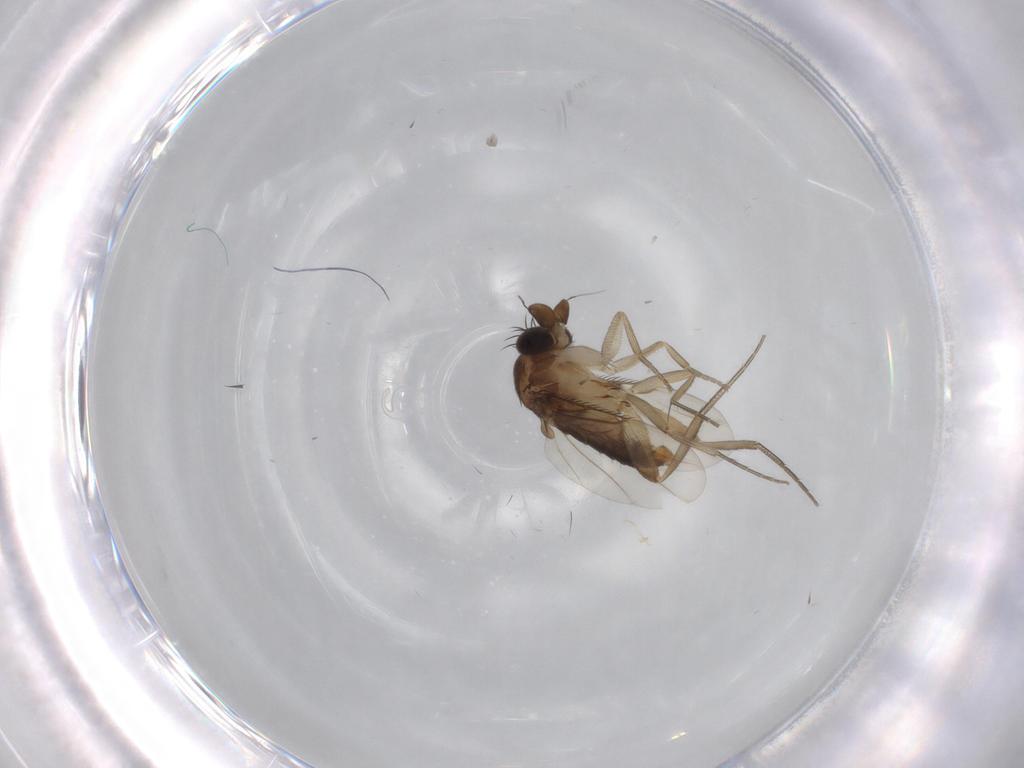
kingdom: Animalia
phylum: Arthropoda
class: Insecta
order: Diptera
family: Phoridae
